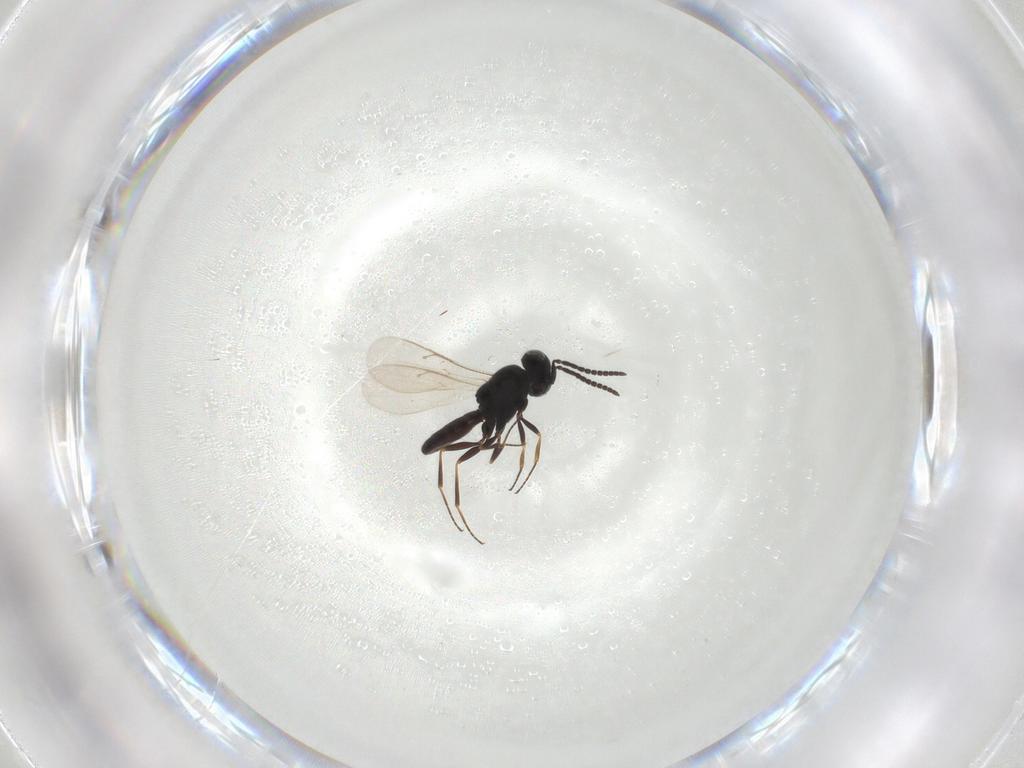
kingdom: Animalia
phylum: Arthropoda
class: Insecta
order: Hymenoptera
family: Scelionidae
